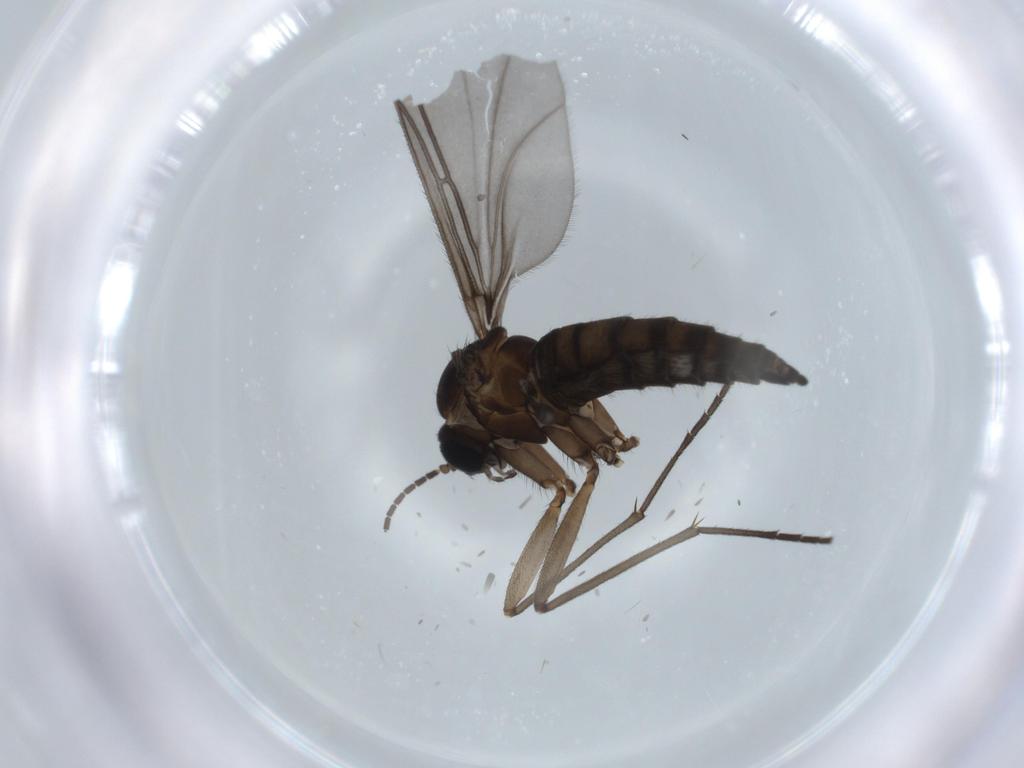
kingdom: Animalia
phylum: Arthropoda
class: Insecta
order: Diptera
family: Sciaridae
